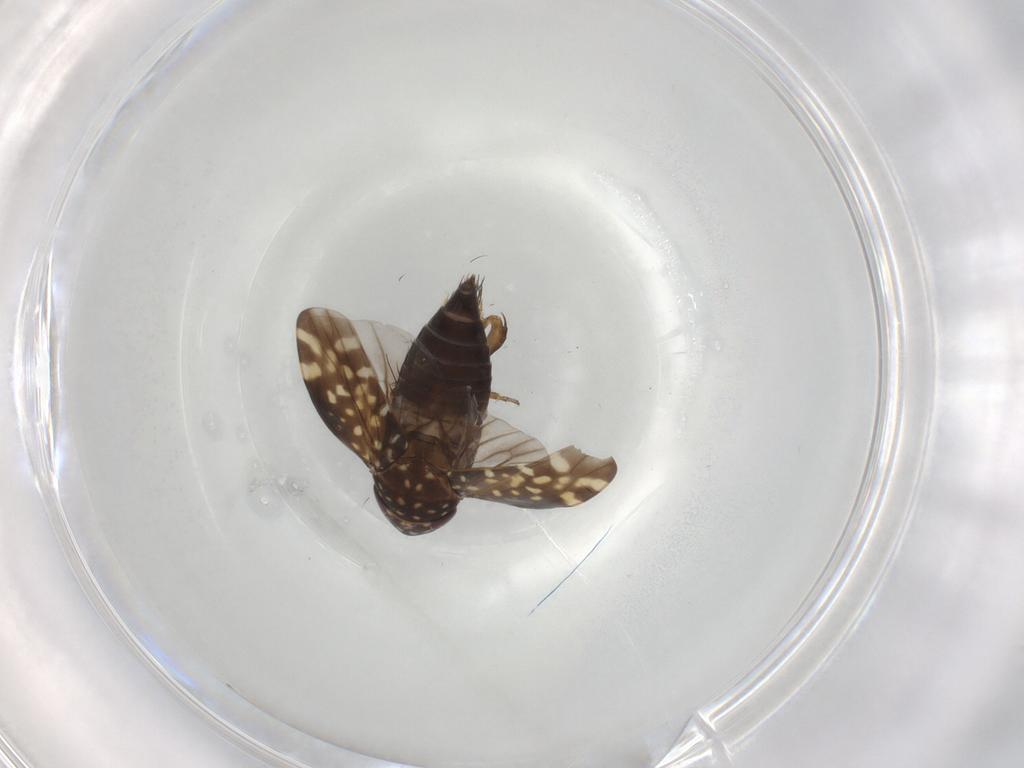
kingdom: Animalia
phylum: Arthropoda
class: Insecta
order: Hemiptera
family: Cicadellidae
